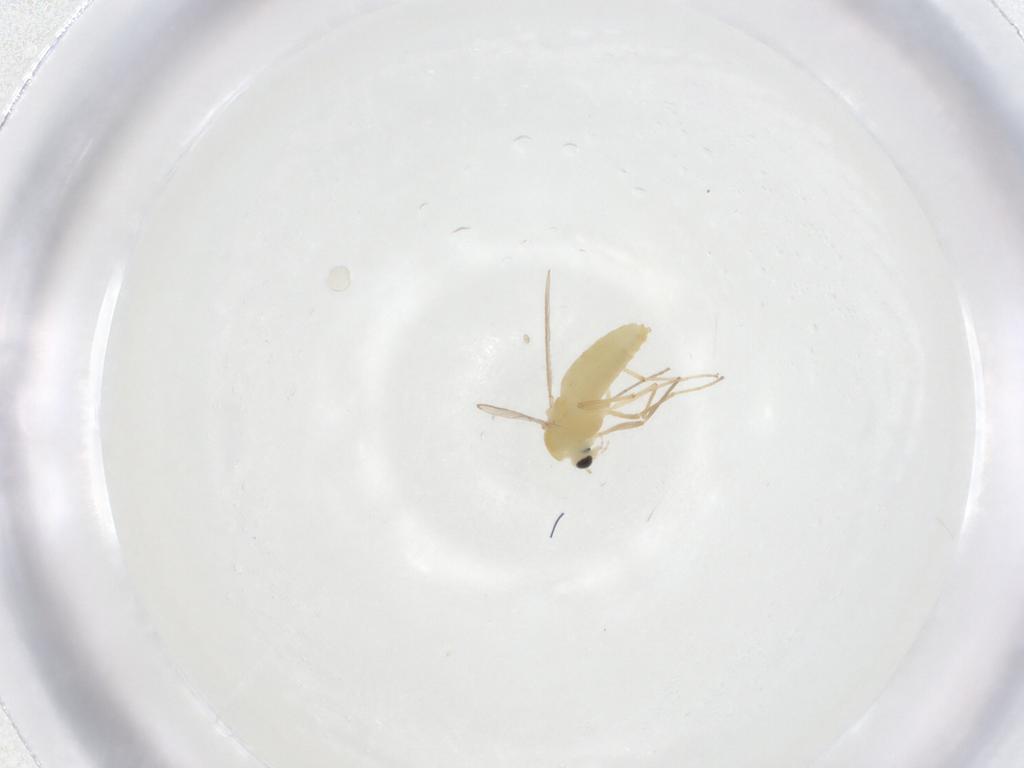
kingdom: Animalia
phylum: Arthropoda
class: Insecta
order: Diptera
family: Chironomidae
